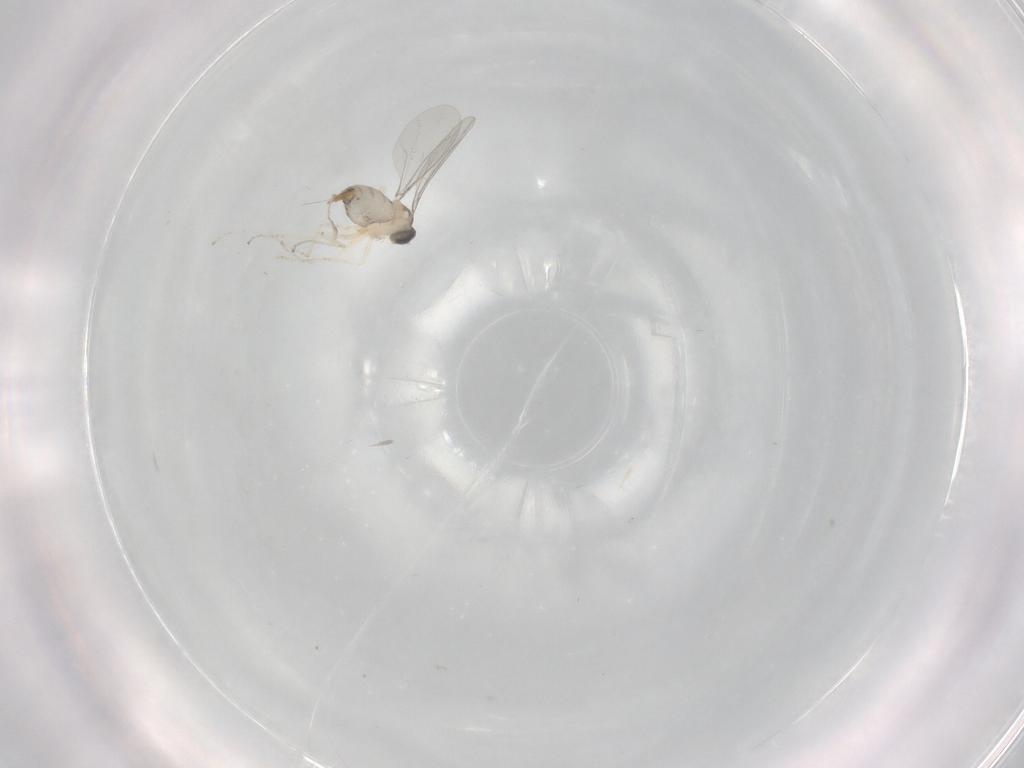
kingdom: Animalia
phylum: Arthropoda
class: Insecta
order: Diptera
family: Cecidomyiidae
